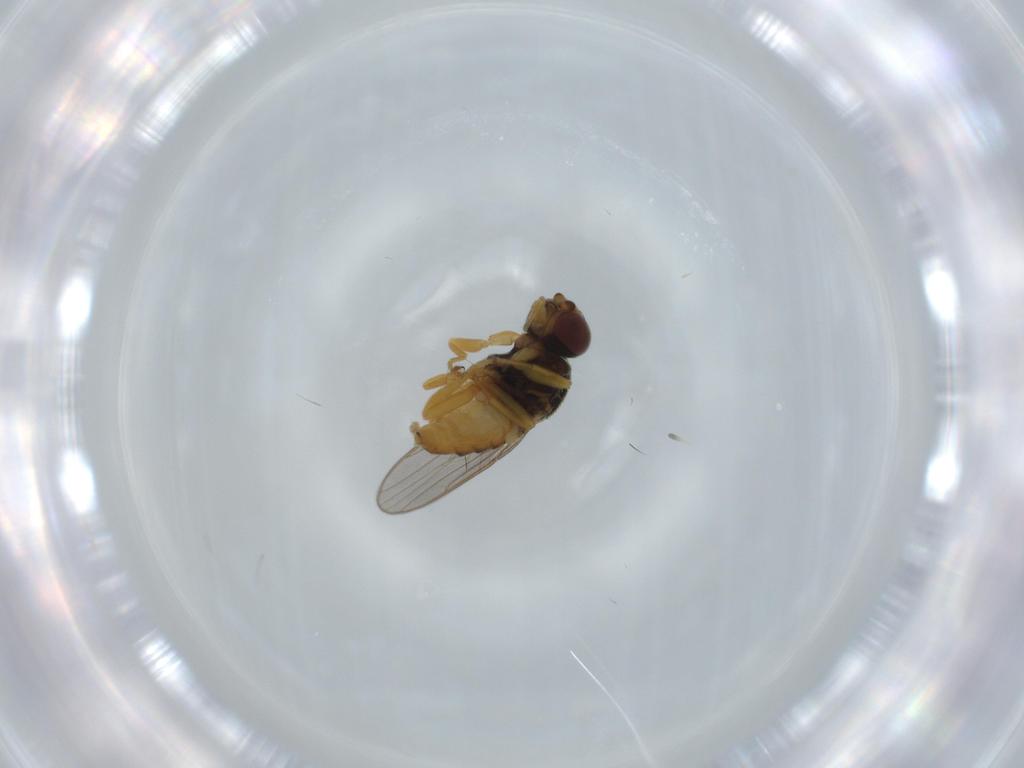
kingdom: Animalia
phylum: Arthropoda
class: Insecta
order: Diptera
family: Chloropidae
